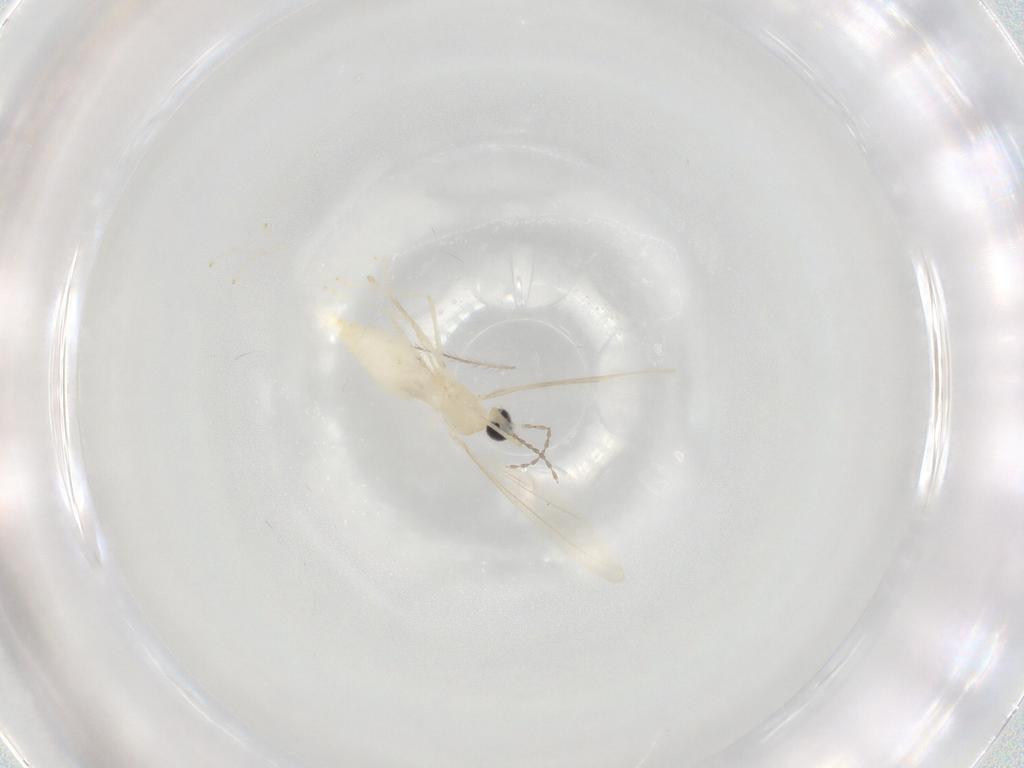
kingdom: Animalia
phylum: Arthropoda
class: Insecta
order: Diptera
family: Cecidomyiidae
